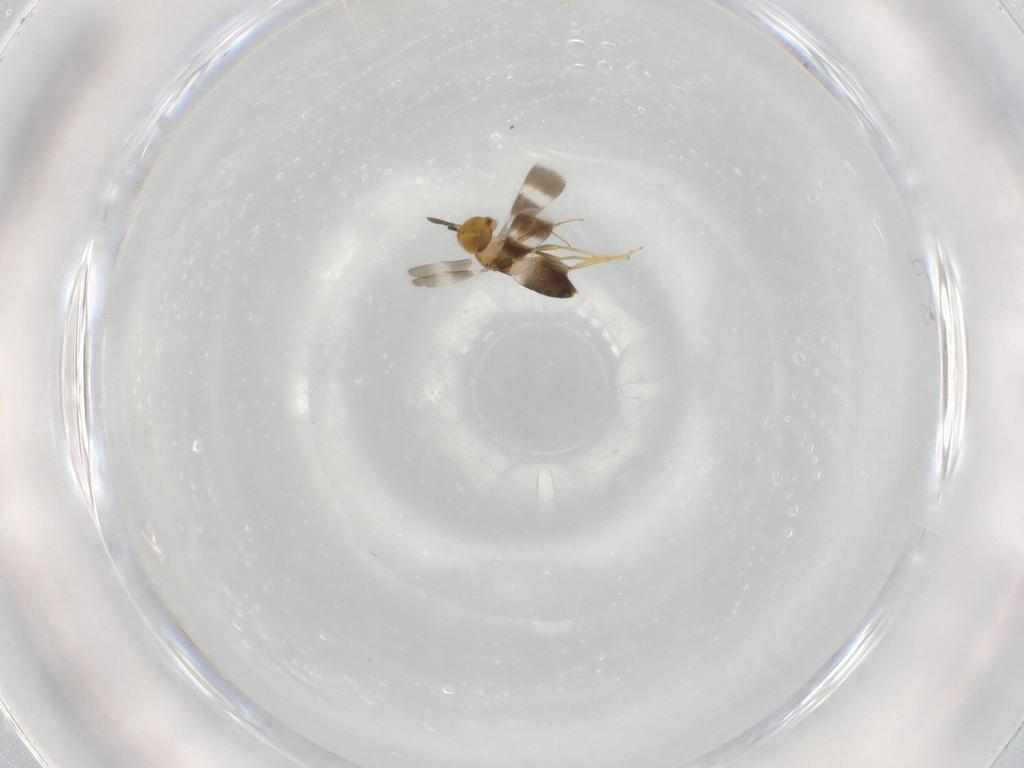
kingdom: Animalia
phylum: Arthropoda
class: Insecta
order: Hymenoptera
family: Aphelinidae
